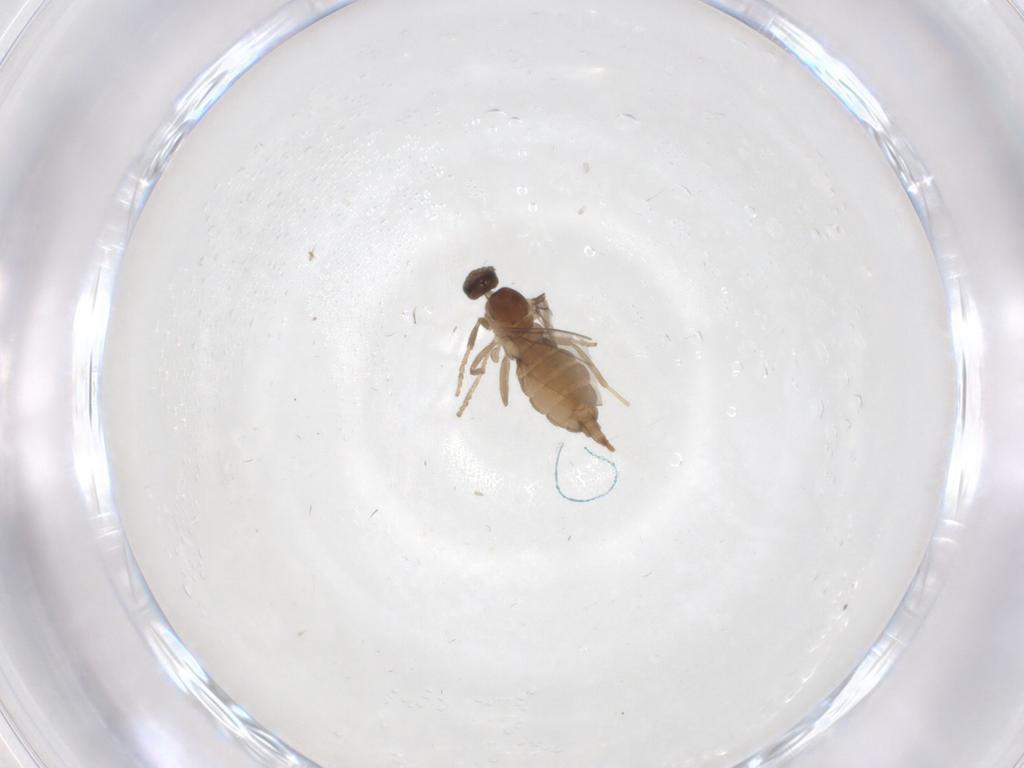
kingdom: Animalia
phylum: Arthropoda
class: Insecta
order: Diptera
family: Cecidomyiidae
